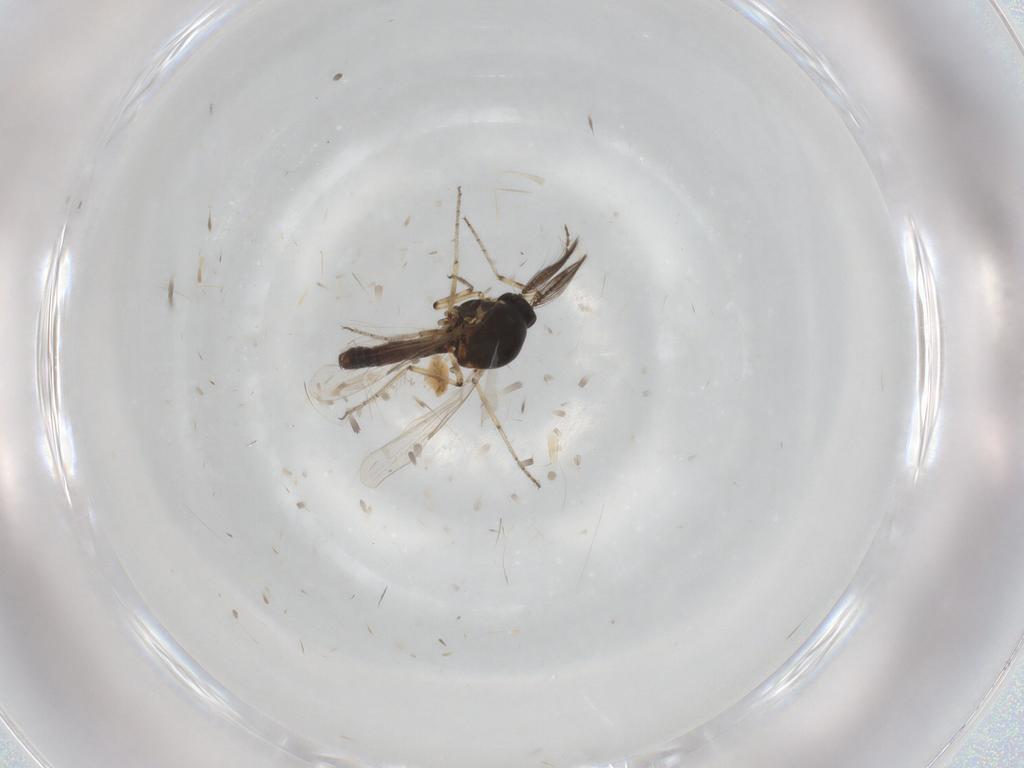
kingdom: Animalia
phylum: Arthropoda
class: Insecta
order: Diptera
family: Ceratopogonidae
